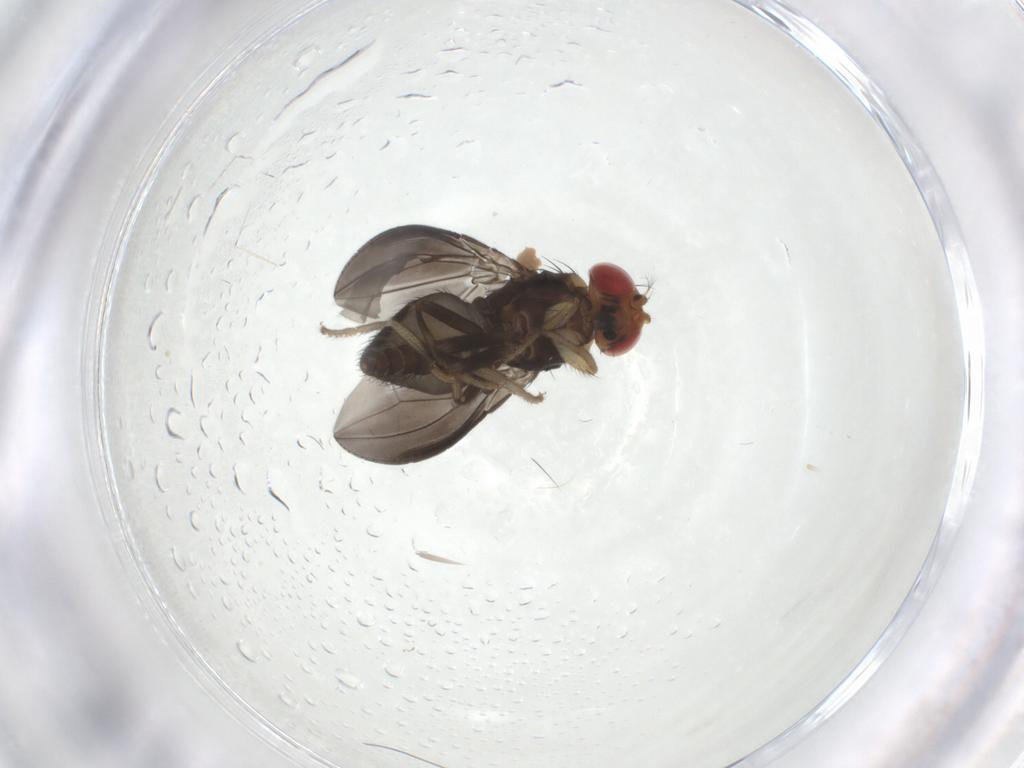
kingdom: Animalia
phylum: Arthropoda
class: Insecta
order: Diptera
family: Drosophilidae
